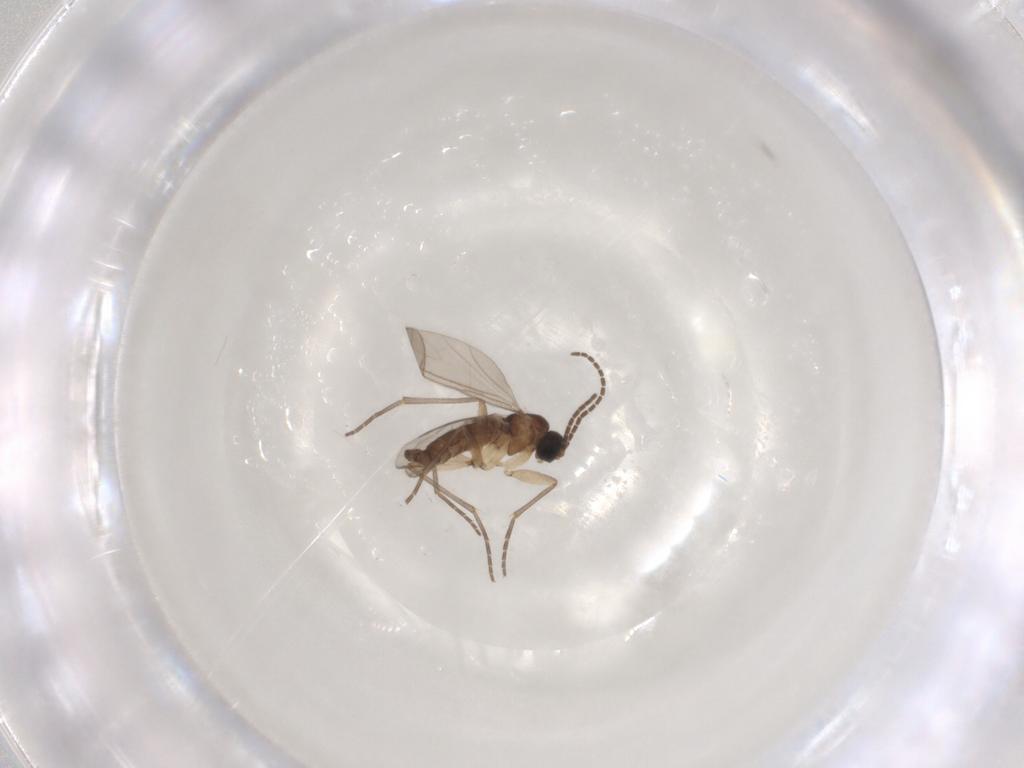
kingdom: Animalia
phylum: Arthropoda
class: Insecta
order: Diptera
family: Sciaridae
